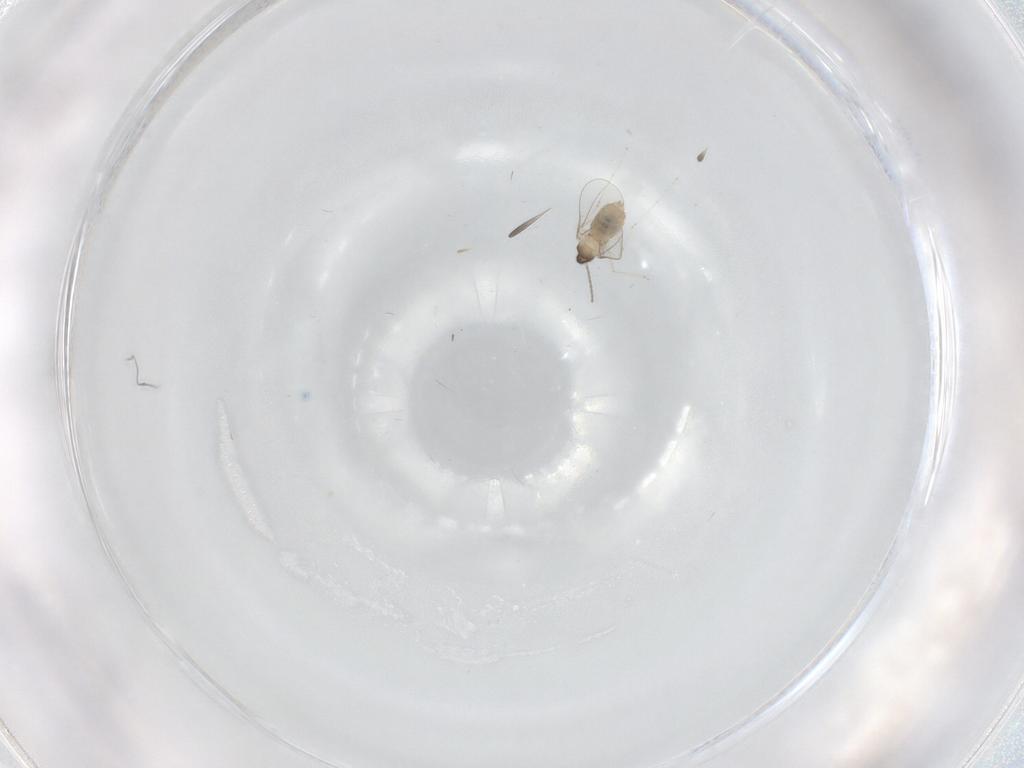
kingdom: Animalia
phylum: Arthropoda
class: Insecta
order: Diptera
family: Cecidomyiidae
